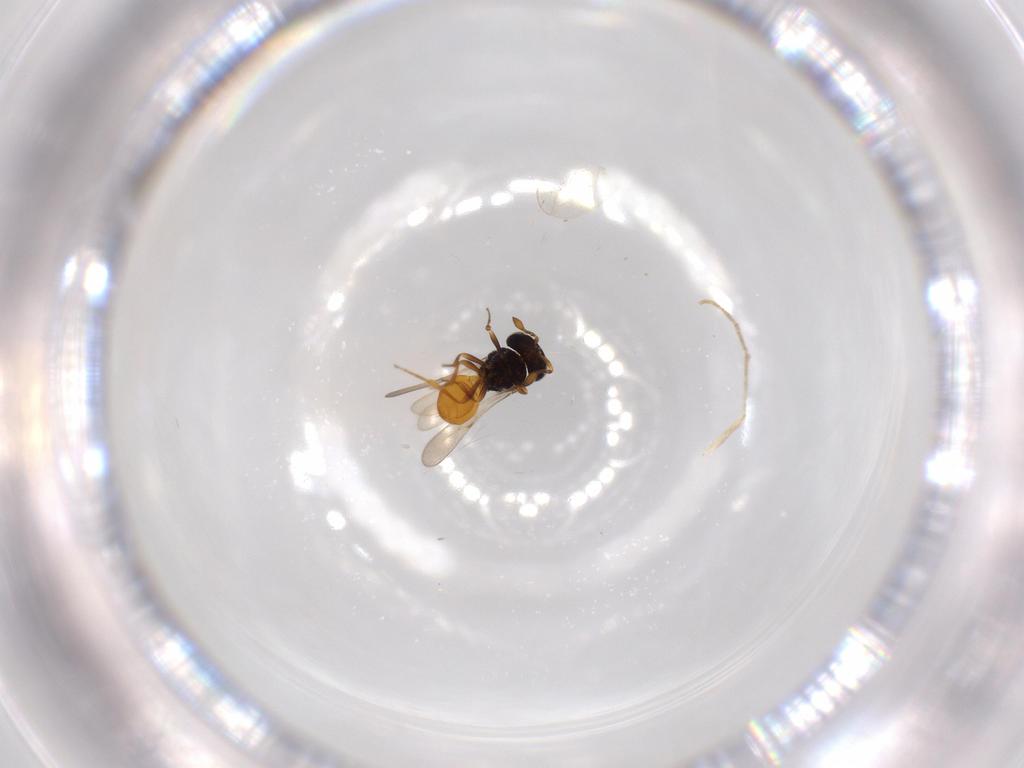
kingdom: Animalia
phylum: Arthropoda
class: Insecta
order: Hymenoptera
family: Scelionidae
